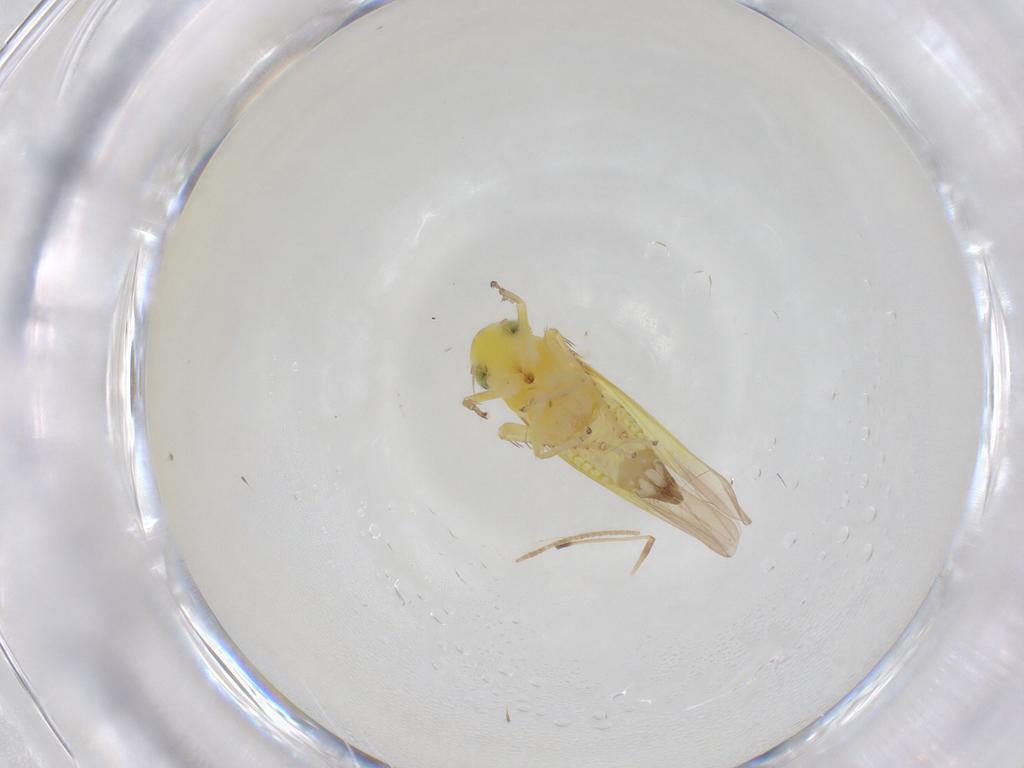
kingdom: Animalia
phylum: Arthropoda
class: Insecta
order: Hemiptera
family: Cicadellidae
